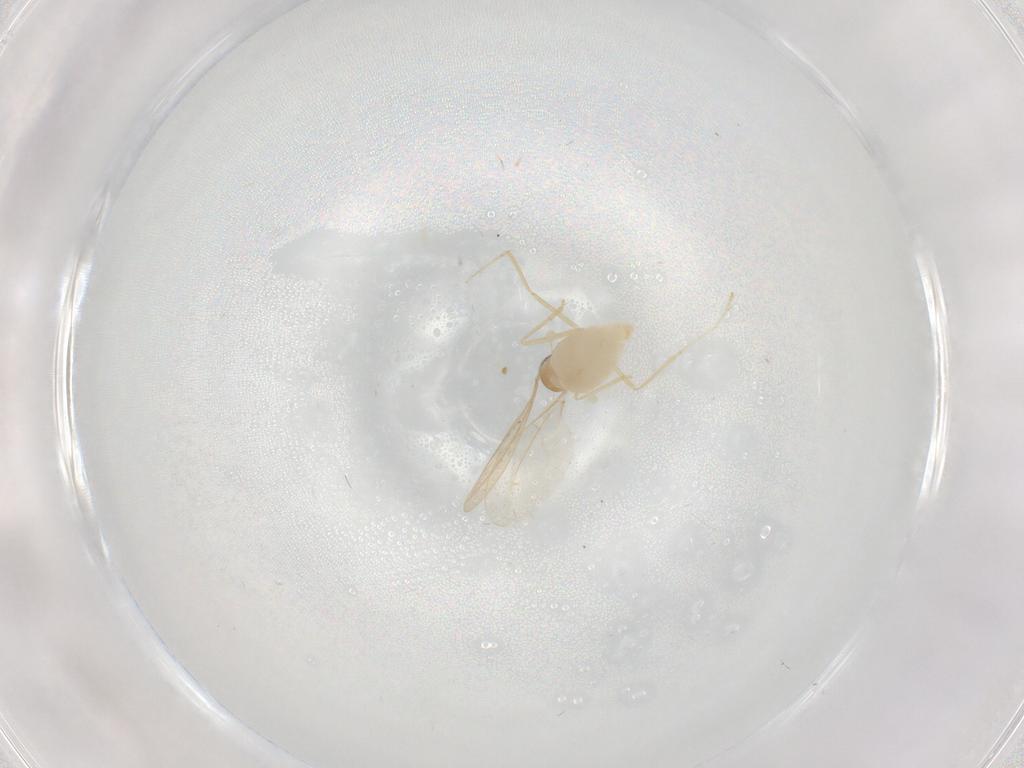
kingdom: Animalia
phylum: Arthropoda
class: Insecta
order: Diptera
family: Cecidomyiidae
